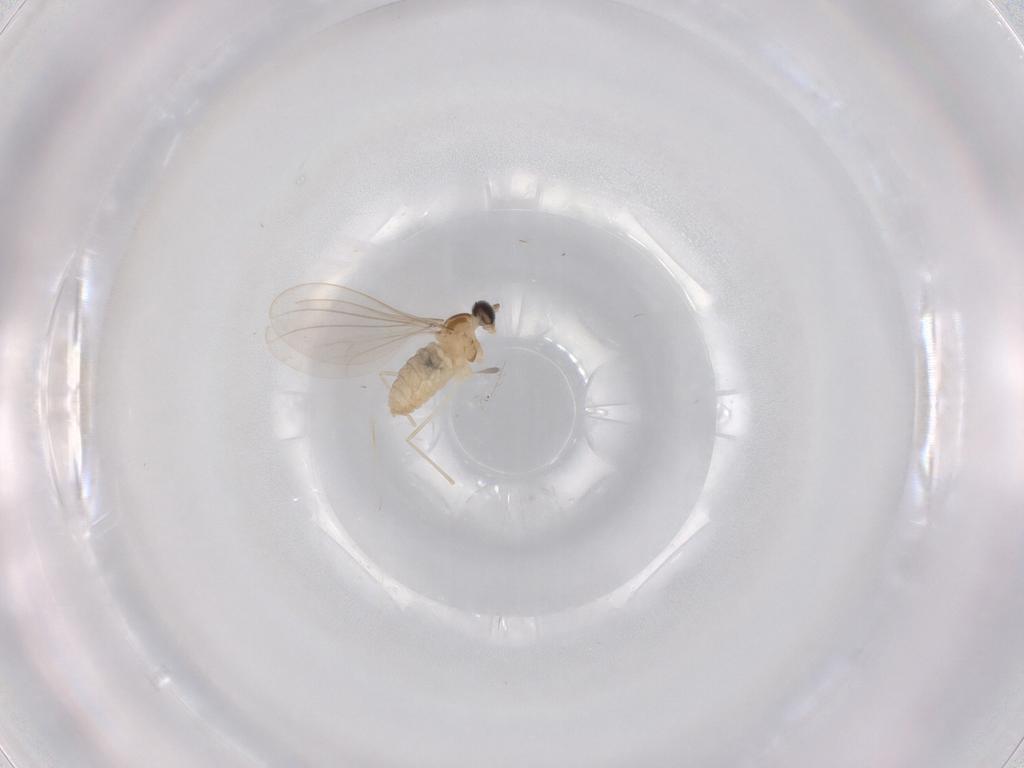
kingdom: Animalia
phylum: Arthropoda
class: Insecta
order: Diptera
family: Cecidomyiidae
